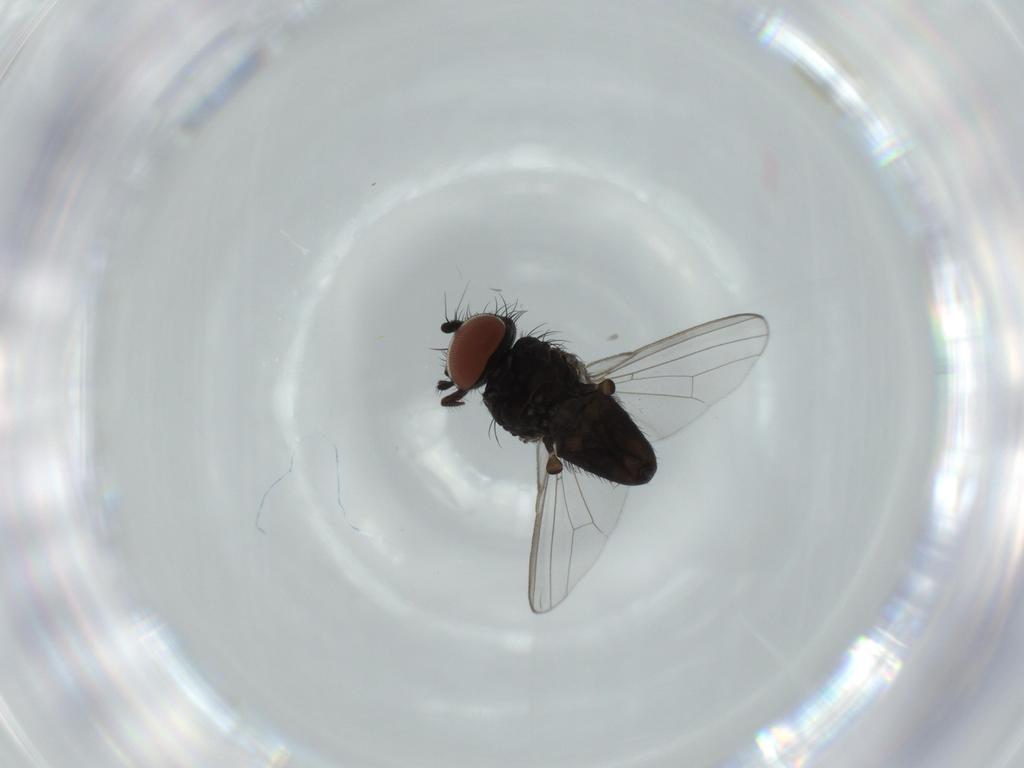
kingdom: Animalia
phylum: Arthropoda
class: Insecta
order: Diptera
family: Milichiidae
